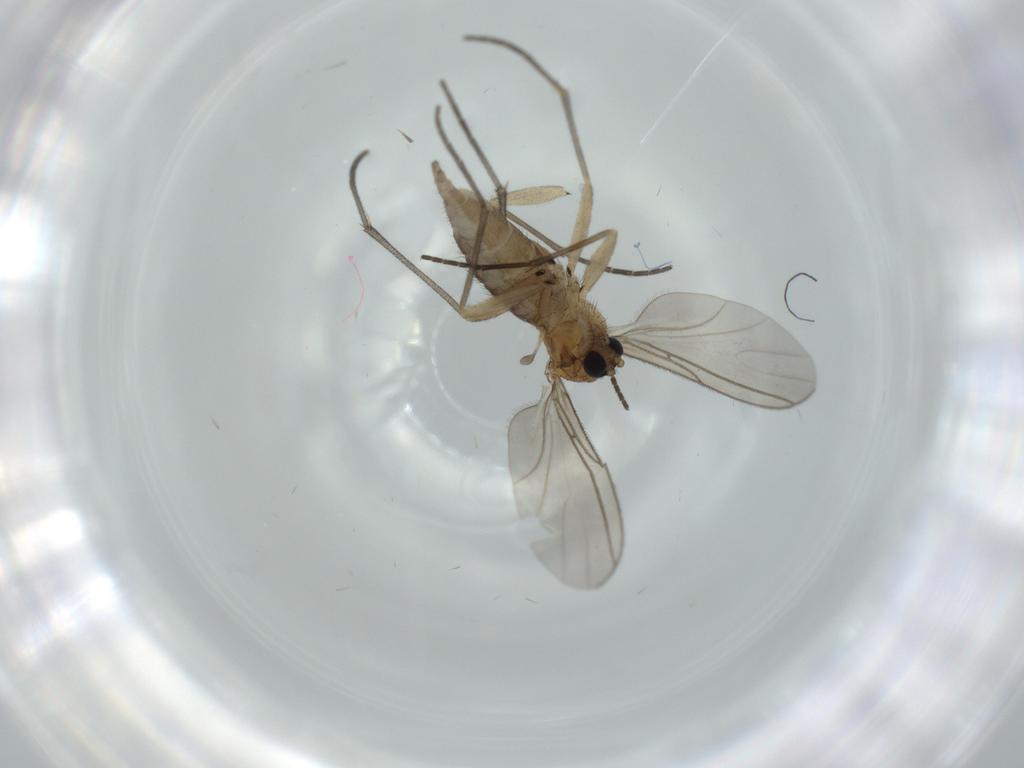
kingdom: Animalia
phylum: Arthropoda
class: Insecta
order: Diptera
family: Sciaridae
